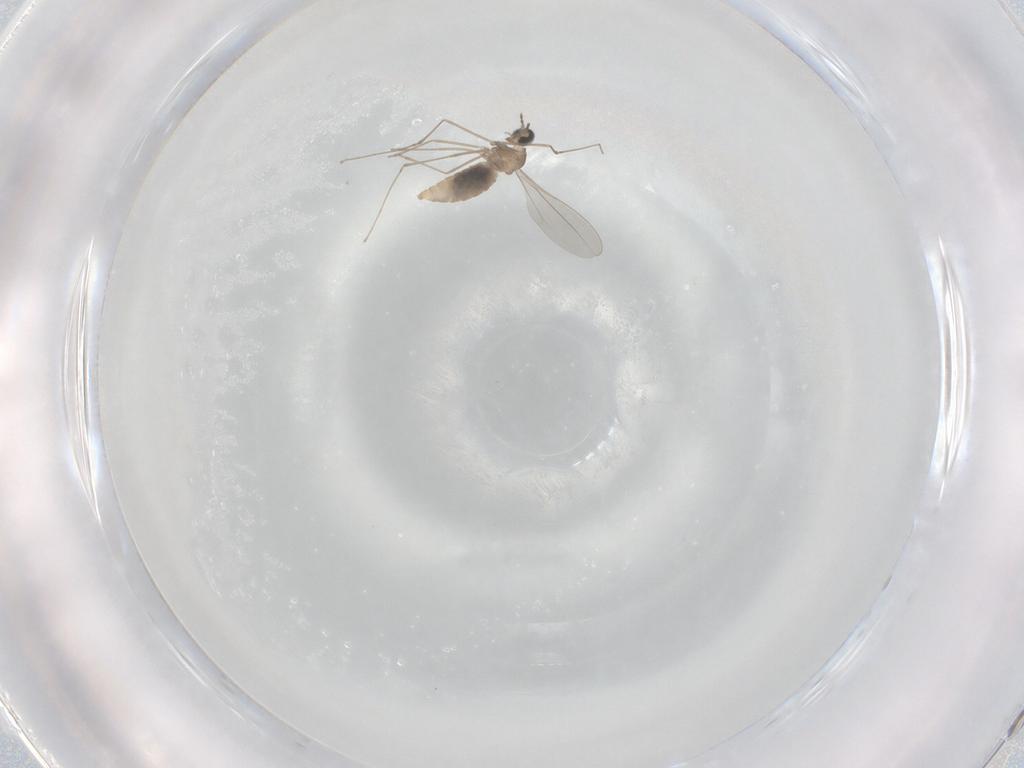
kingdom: Animalia
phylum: Arthropoda
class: Insecta
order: Diptera
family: Cecidomyiidae
